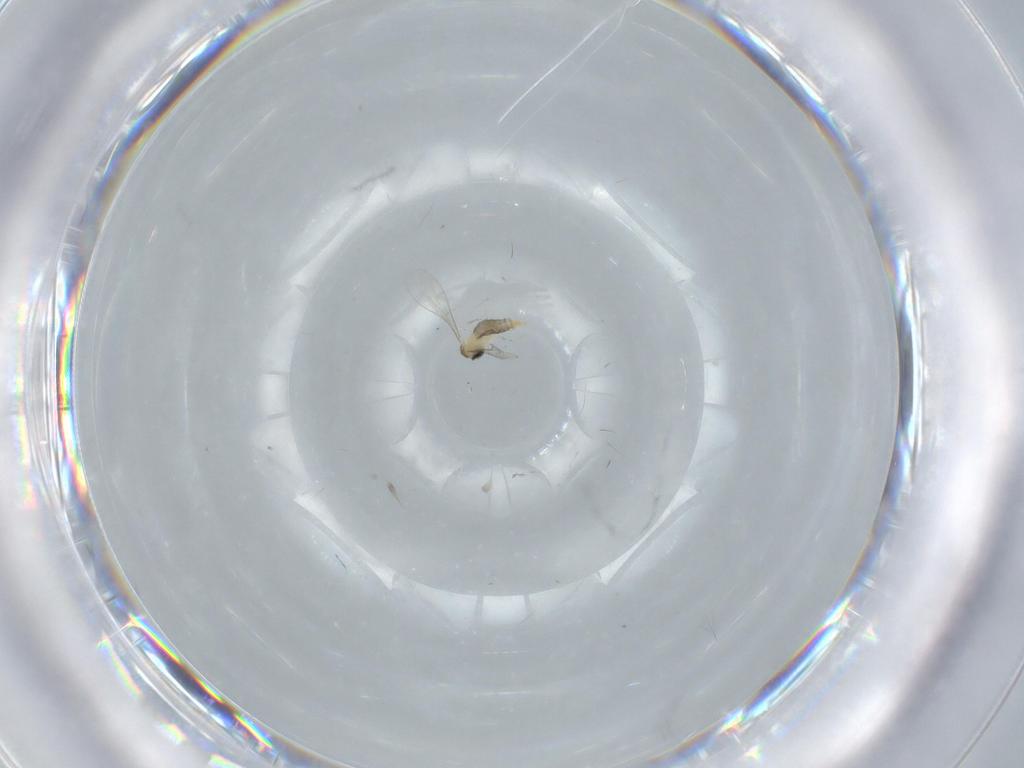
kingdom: Animalia
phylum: Arthropoda
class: Insecta
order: Diptera
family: Tabanidae
